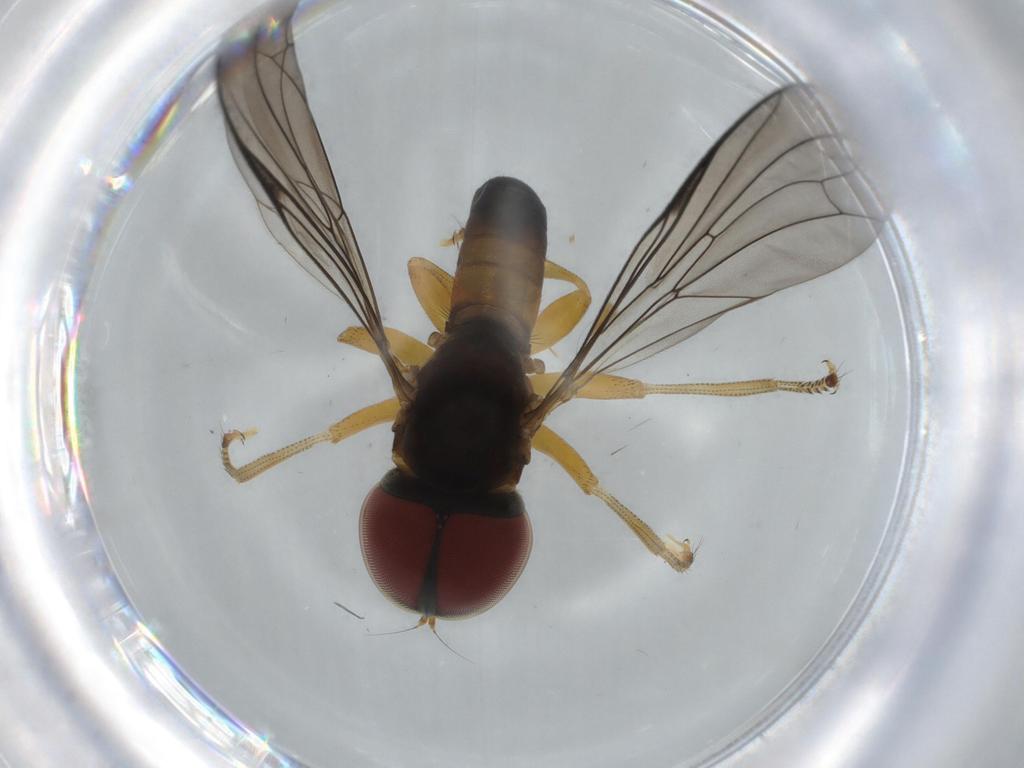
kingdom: Animalia
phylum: Arthropoda
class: Insecta
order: Diptera
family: Pipunculidae
